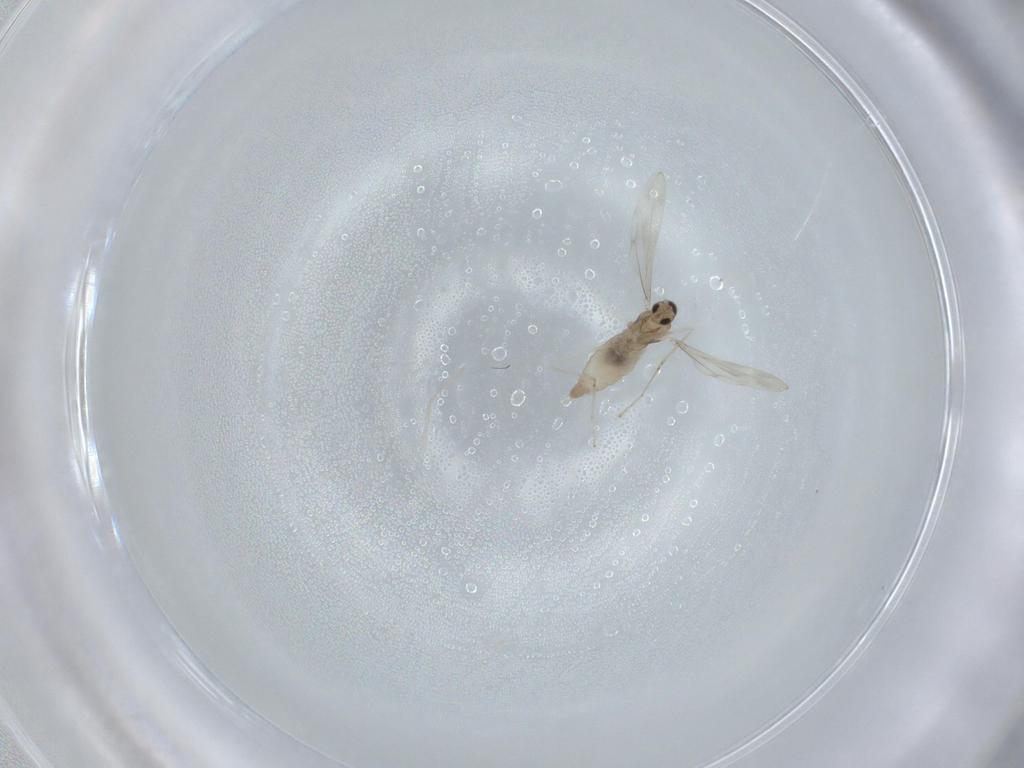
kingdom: Animalia
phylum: Arthropoda
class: Insecta
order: Diptera
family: Cecidomyiidae
